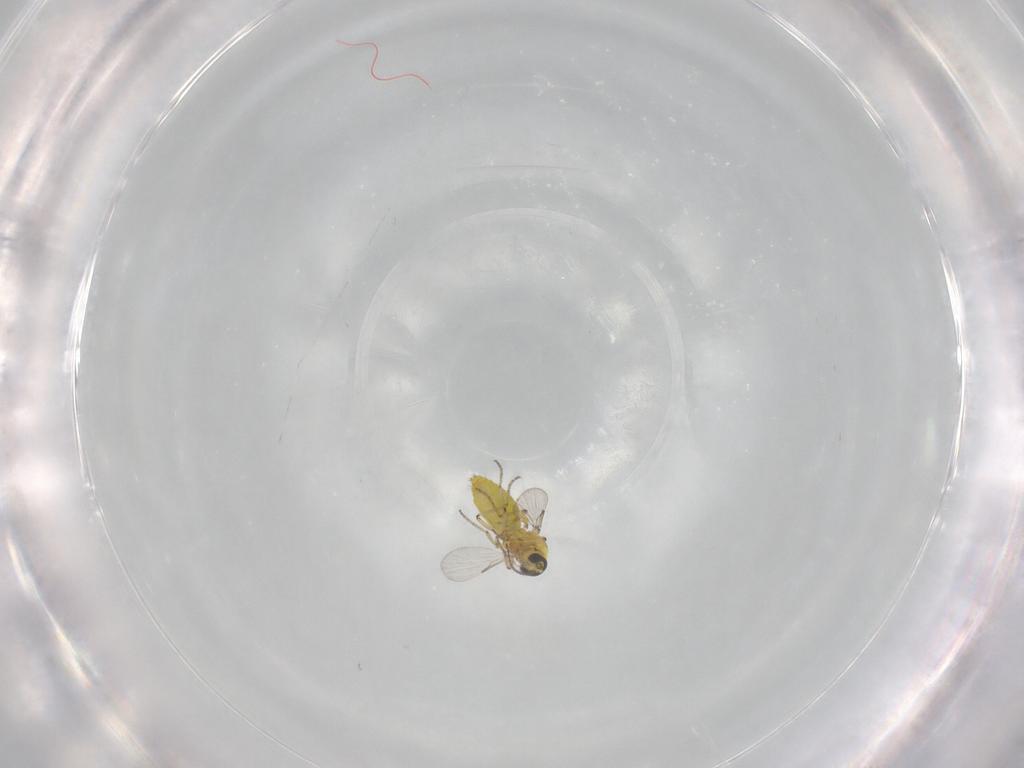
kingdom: Animalia
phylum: Arthropoda
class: Insecta
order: Diptera
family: Ceratopogonidae
